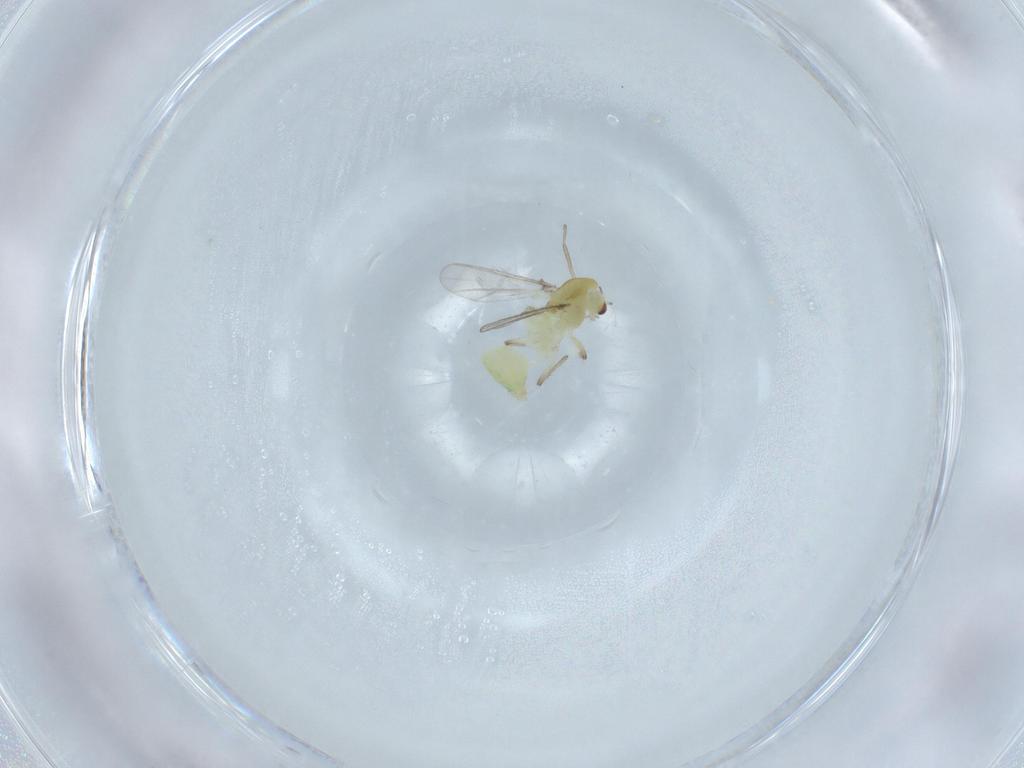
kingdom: Animalia
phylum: Arthropoda
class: Insecta
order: Diptera
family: Chironomidae
